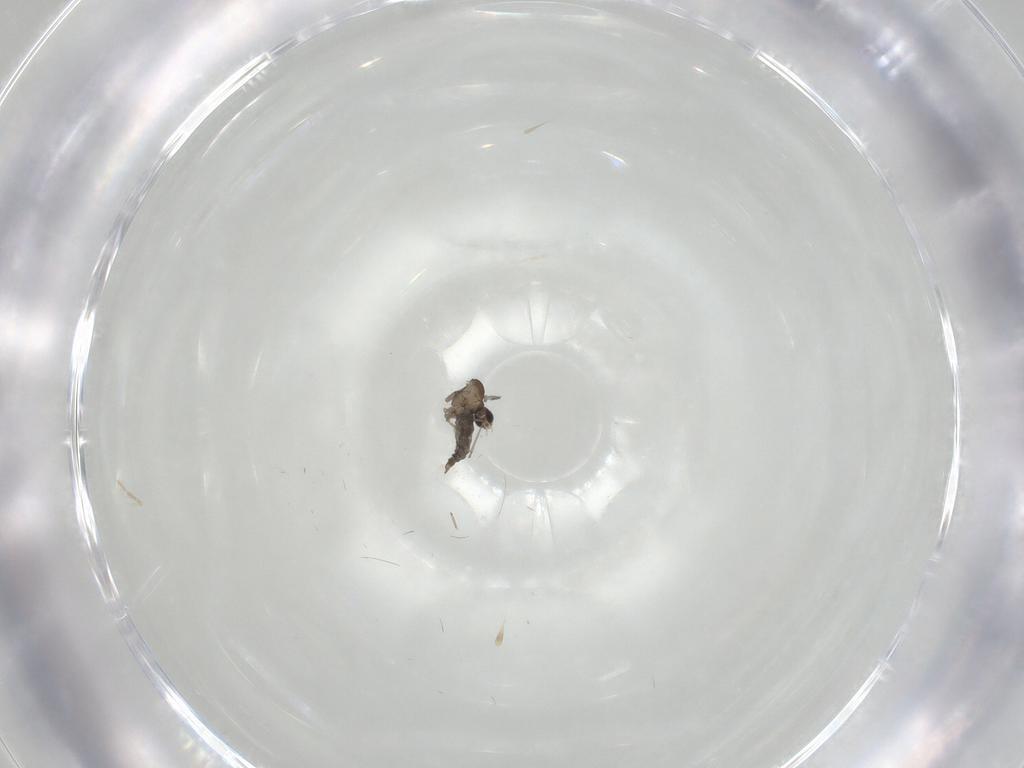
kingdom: Animalia
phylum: Arthropoda
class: Insecta
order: Diptera
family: Cecidomyiidae
